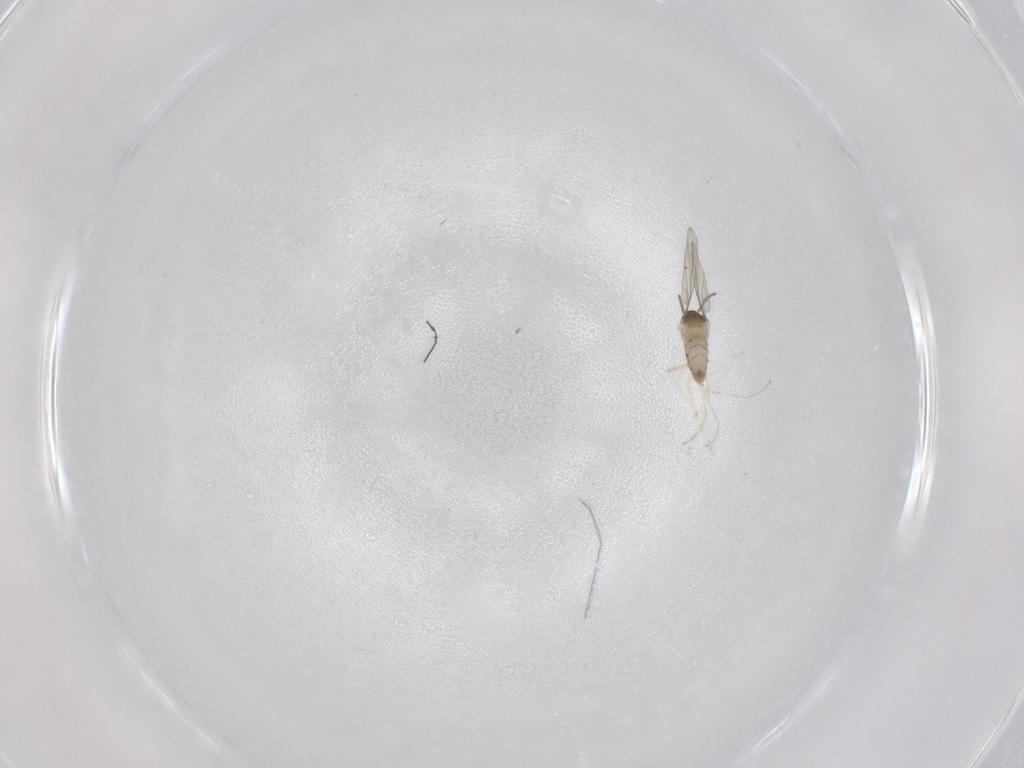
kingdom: Animalia
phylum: Arthropoda
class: Insecta
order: Diptera
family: Cecidomyiidae
